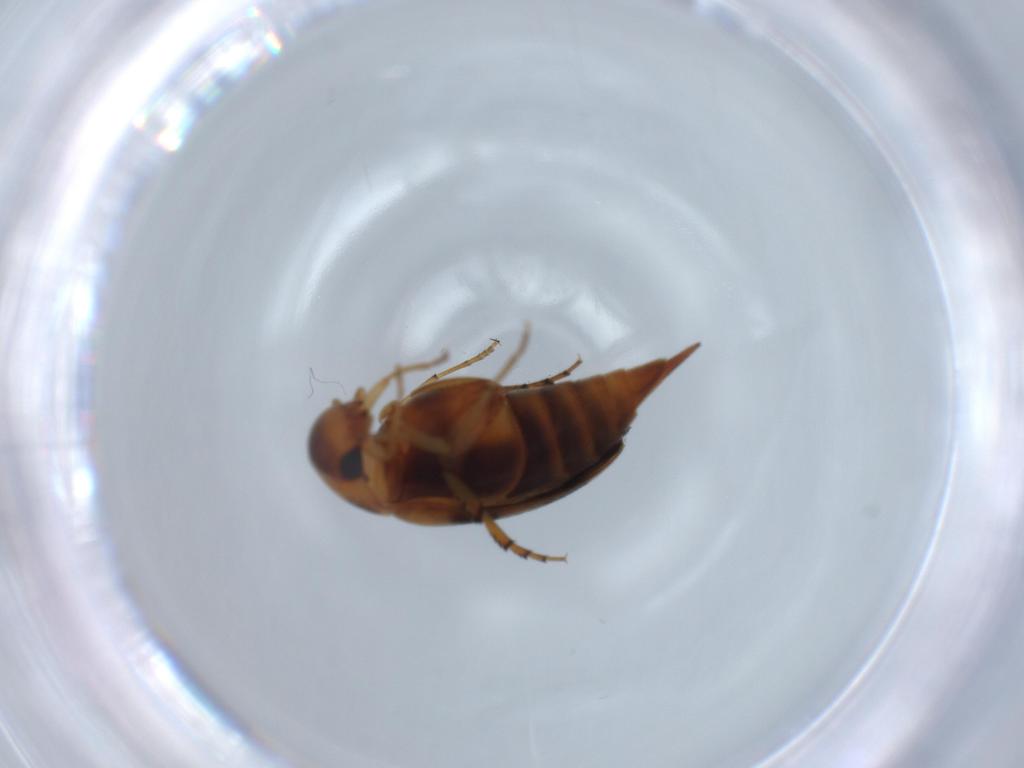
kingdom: Animalia
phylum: Arthropoda
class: Insecta
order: Coleoptera
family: Mordellidae
